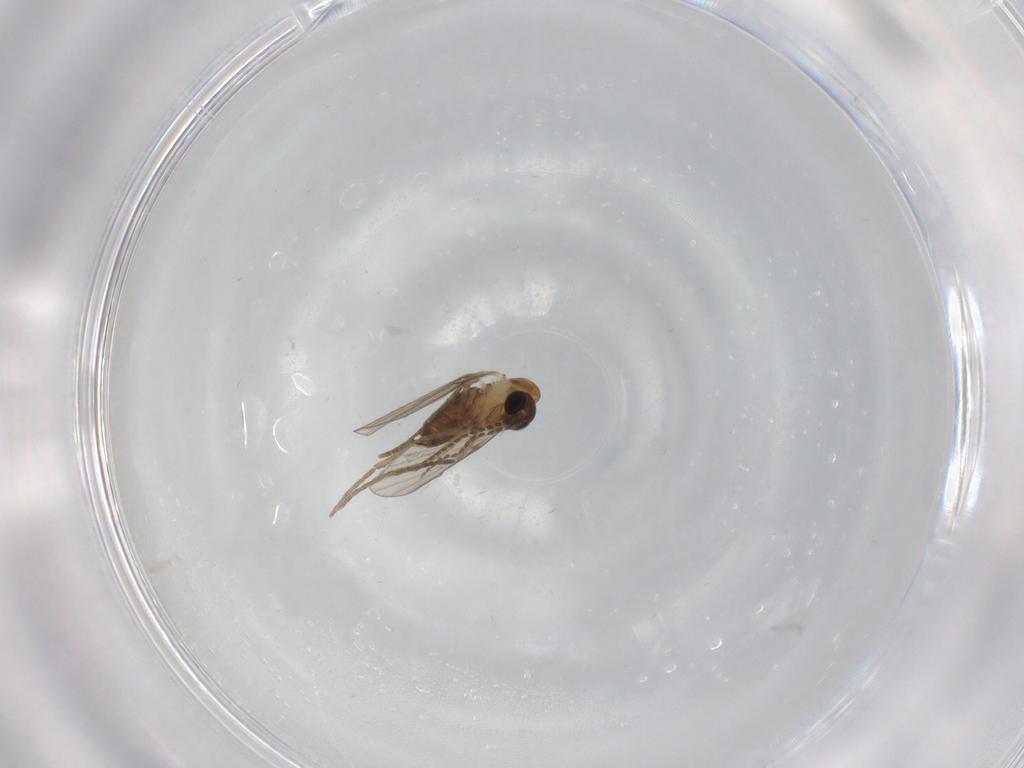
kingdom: Animalia
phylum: Arthropoda
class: Insecta
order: Diptera
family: Psychodidae
